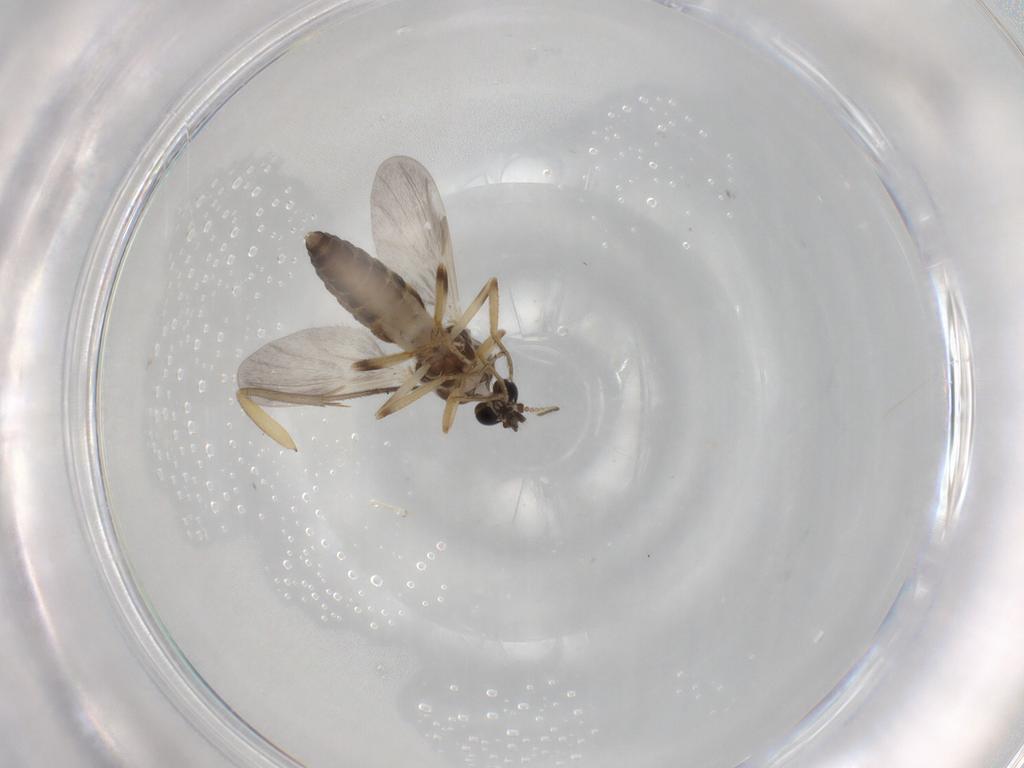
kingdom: Animalia
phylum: Arthropoda
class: Insecta
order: Diptera
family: Ceratopogonidae
